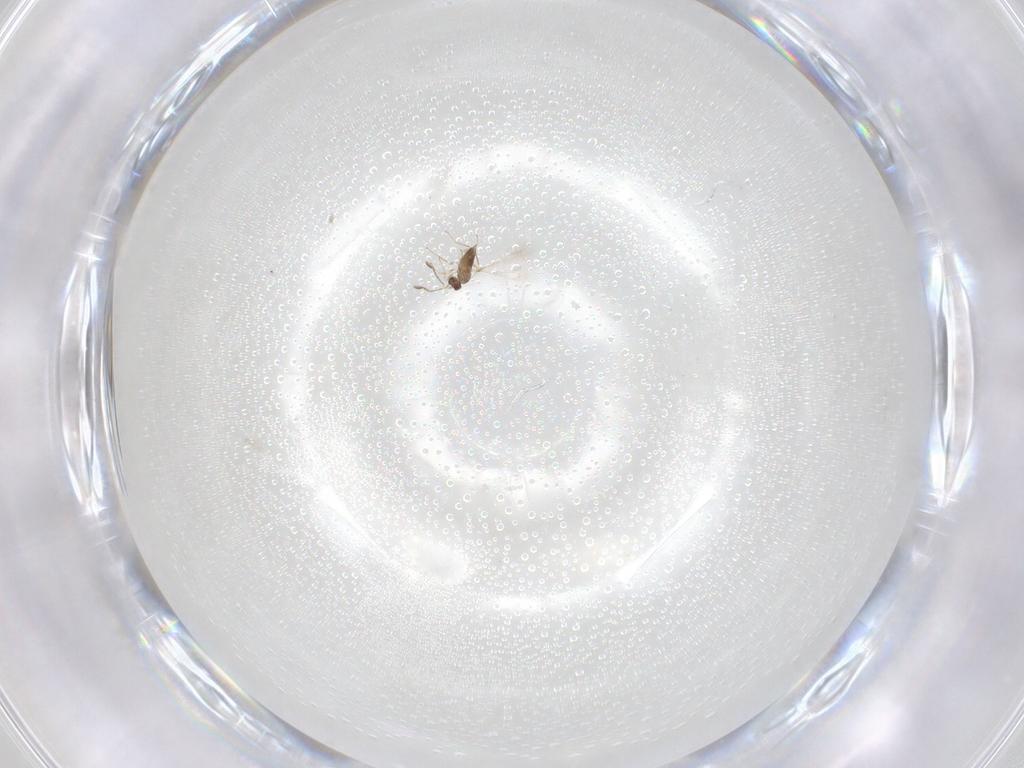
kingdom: Animalia
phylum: Arthropoda
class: Insecta
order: Hymenoptera
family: Mymaridae
